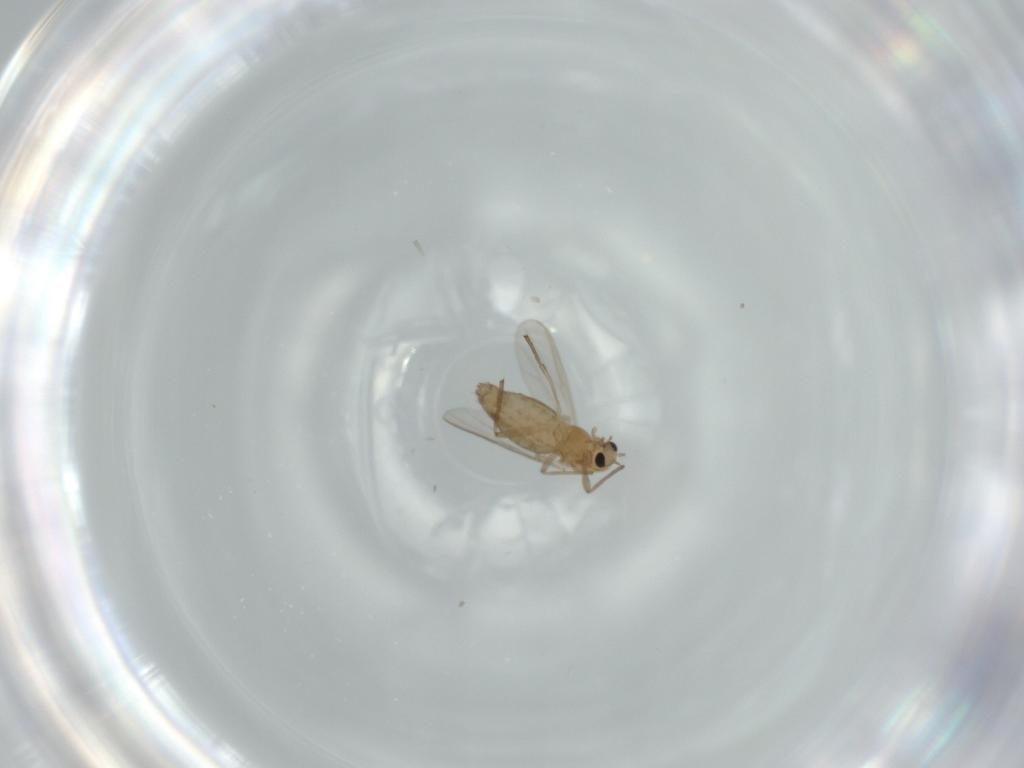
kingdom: Animalia
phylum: Arthropoda
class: Insecta
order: Diptera
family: Chironomidae
